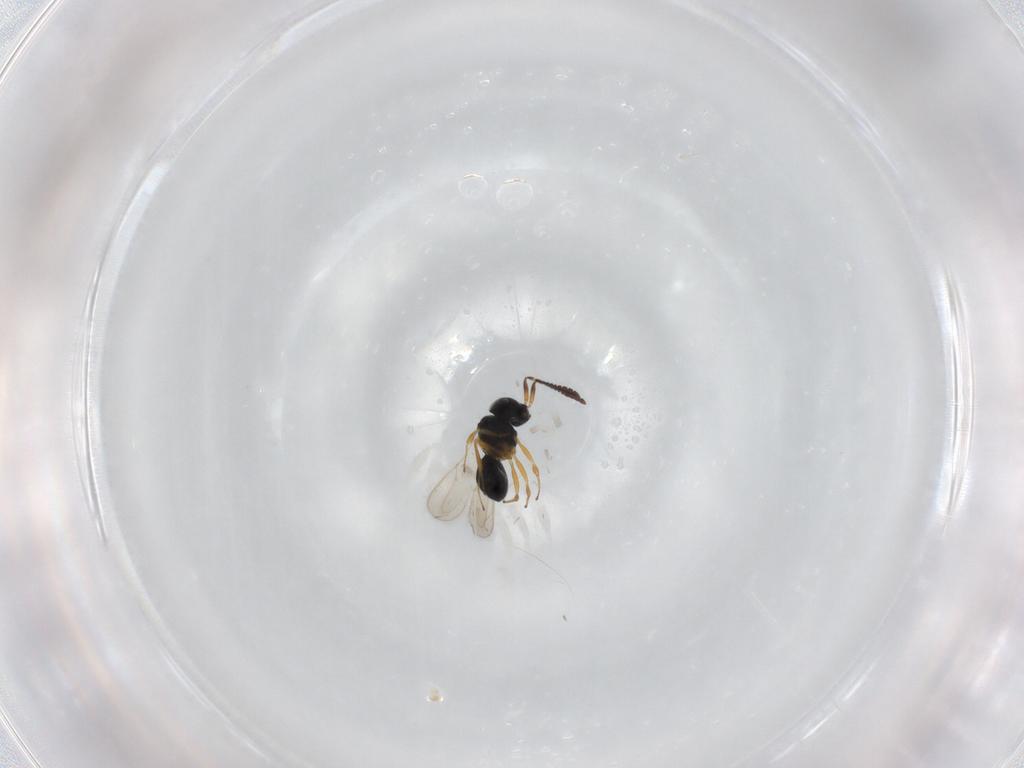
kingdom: Animalia
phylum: Arthropoda
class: Insecta
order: Hymenoptera
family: Scelionidae
